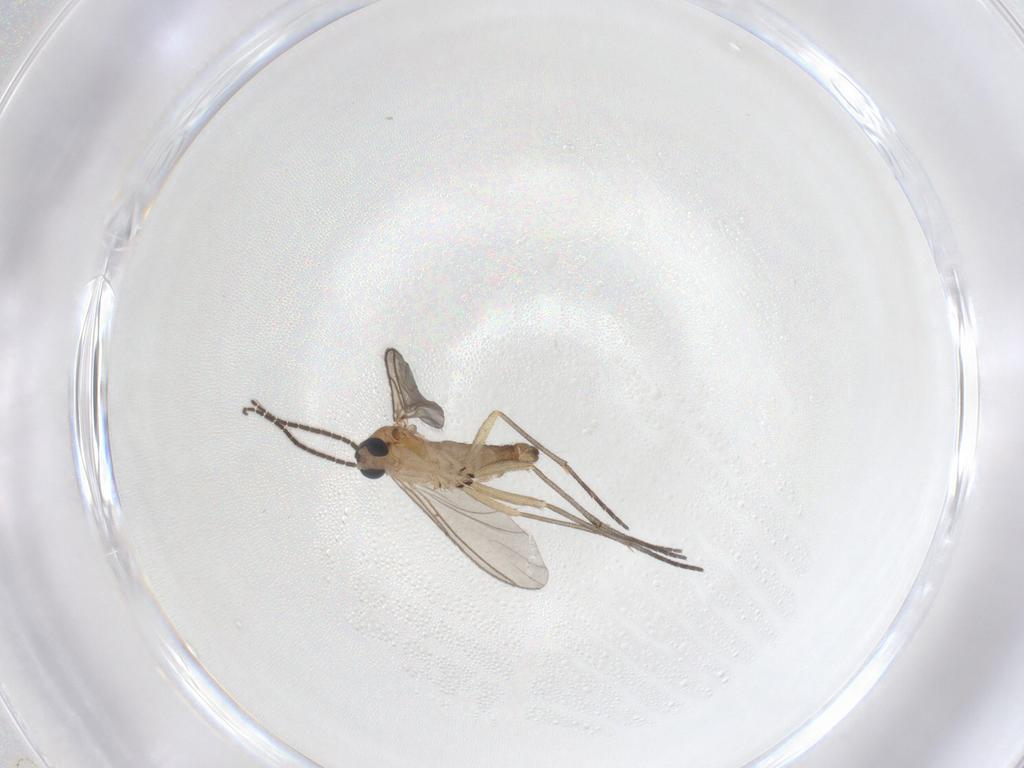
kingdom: Animalia
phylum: Arthropoda
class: Insecta
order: Diptera
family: Sciaridae
